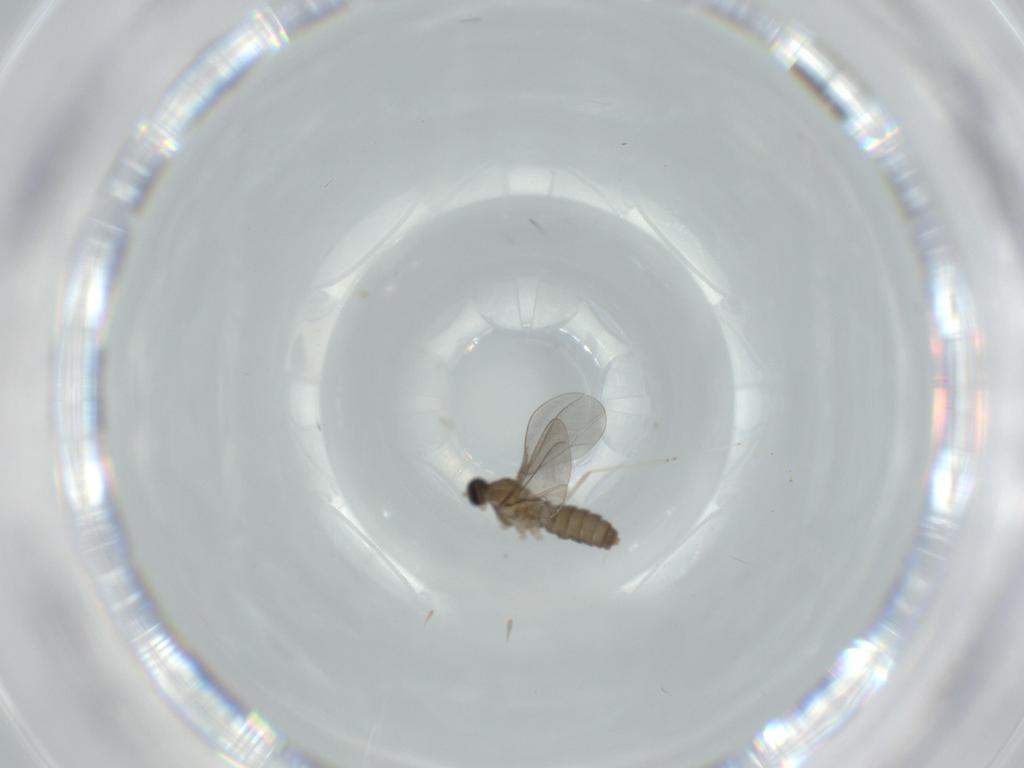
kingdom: Animalia
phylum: Arthropoda
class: Insecta
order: Diptera
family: Cecidomyiidae
